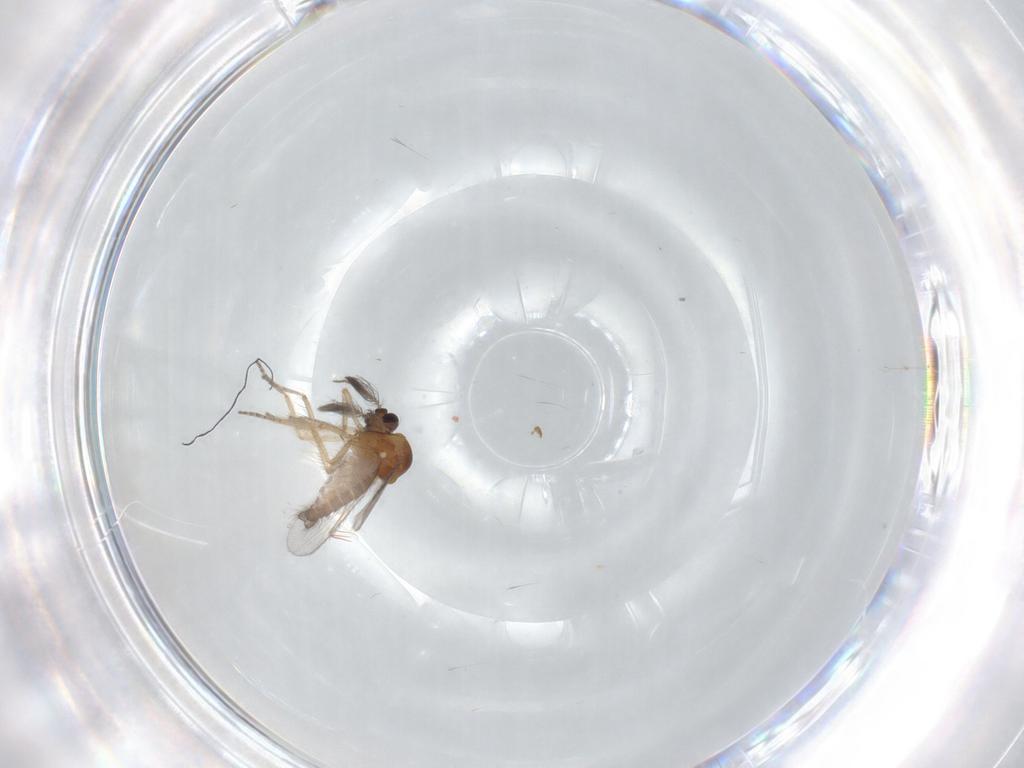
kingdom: Animalia
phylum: Arthropoda
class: Insecta
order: Diptera
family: Ceratopogonidae
